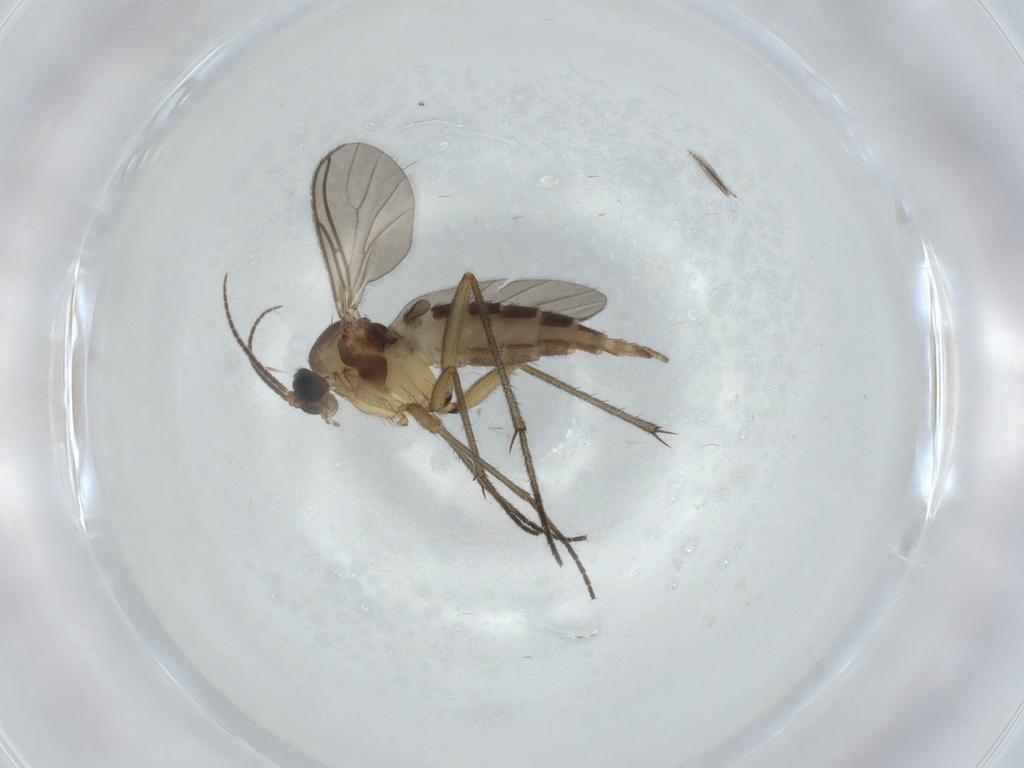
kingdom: Animalia
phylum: Arthropoda
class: Insecta
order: Diptera
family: Sciaridae
